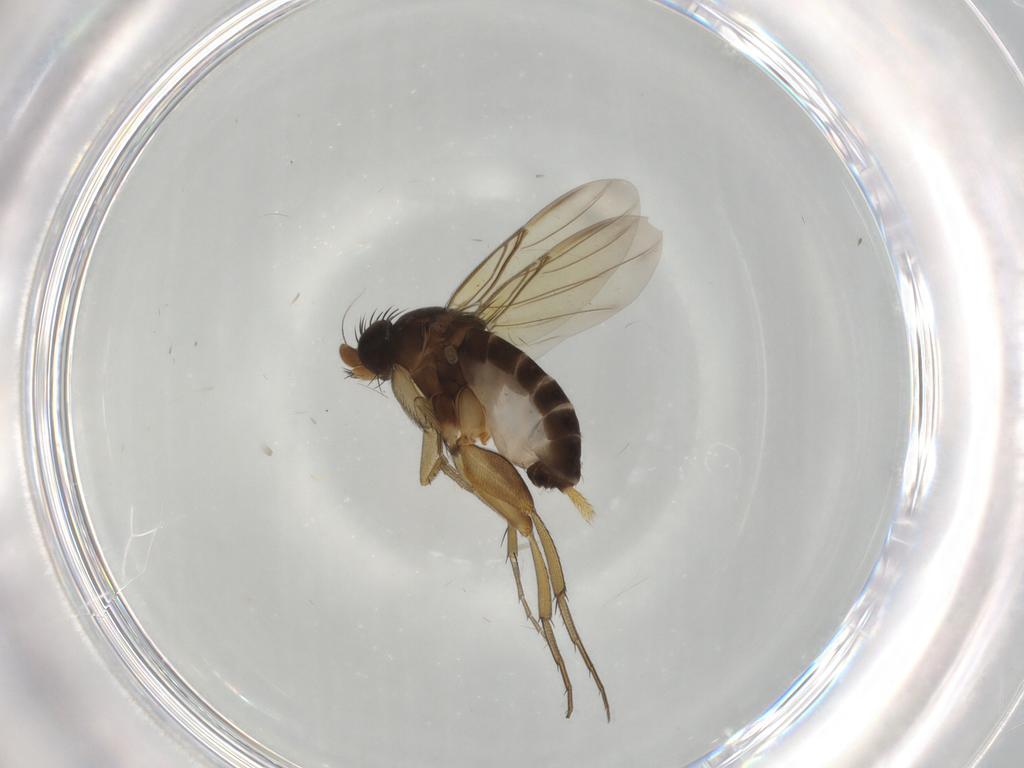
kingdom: Animalia
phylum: Arthropoda
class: Insecta
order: Diptera
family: Phoridae
